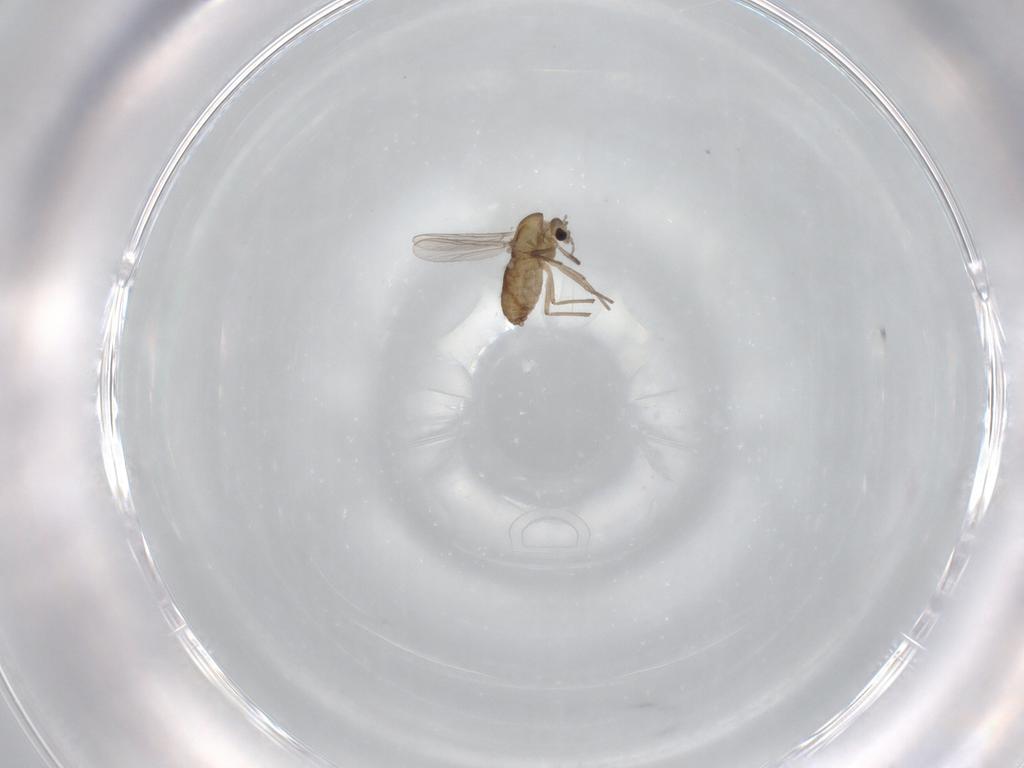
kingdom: Animalia
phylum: Arthropoda
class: Insecta
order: Diptera
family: Chironomidae
